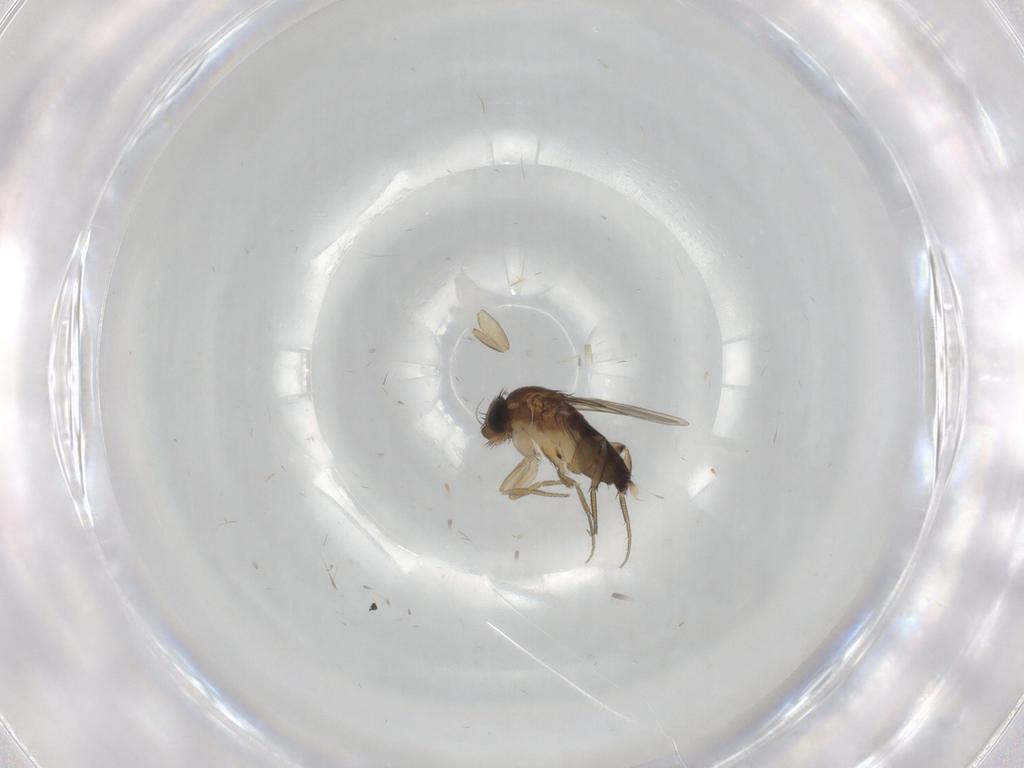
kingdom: Animalia
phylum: Arthropoda
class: Insecta
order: Diptera
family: Phoridae
